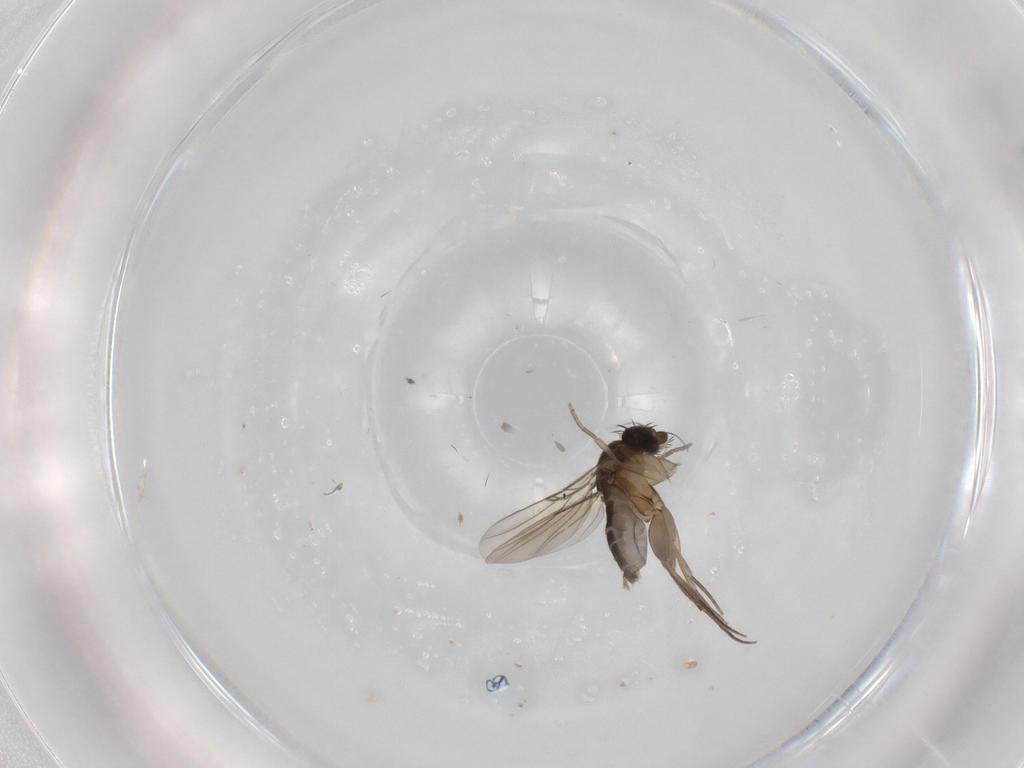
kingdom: Animalia
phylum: Arthropoda
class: Insecta
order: Diptera
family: Phoridae
